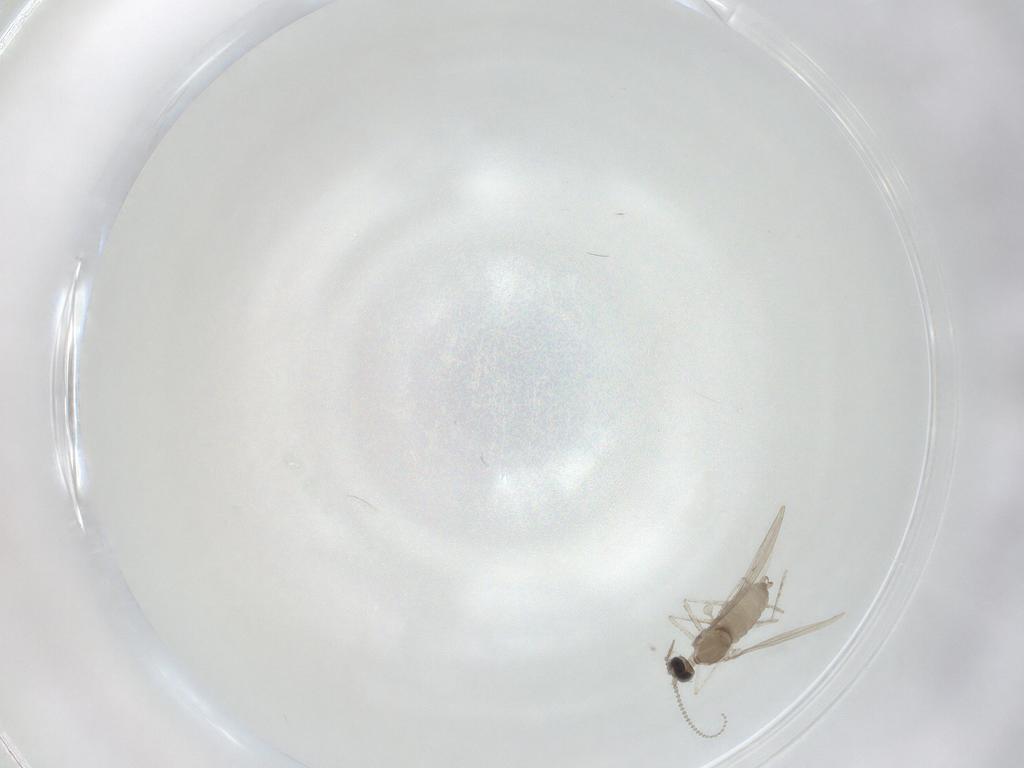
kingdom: Animalia
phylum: Arthropoda
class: Insecta
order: Diptera
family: Cecidomyiidae
